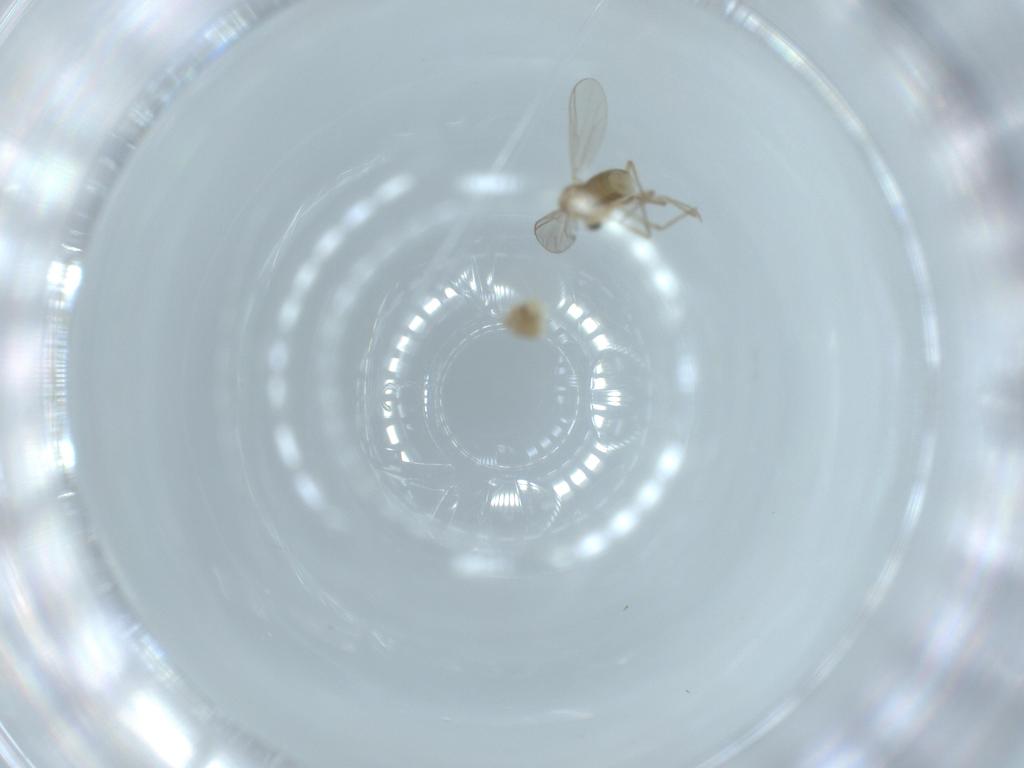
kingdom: Animalia
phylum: Arthropoda
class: Insecta
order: Diptera
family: Chironomidae
